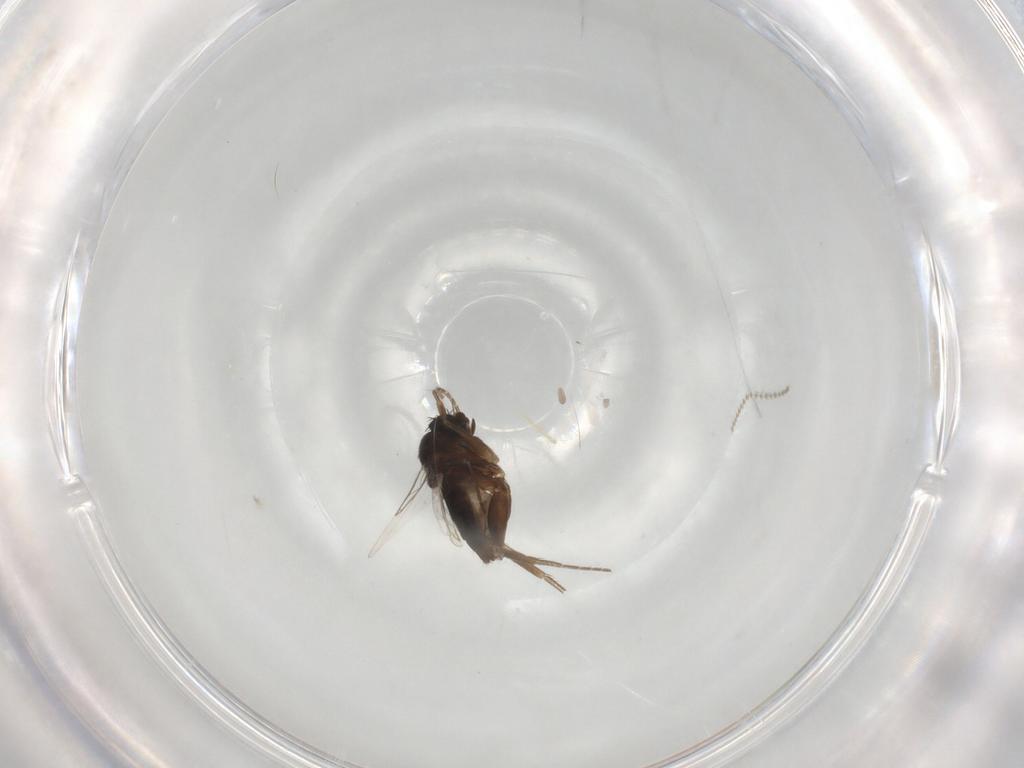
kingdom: Animalia
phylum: Arthropoda
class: Insecta
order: Diptera
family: Phoridae
